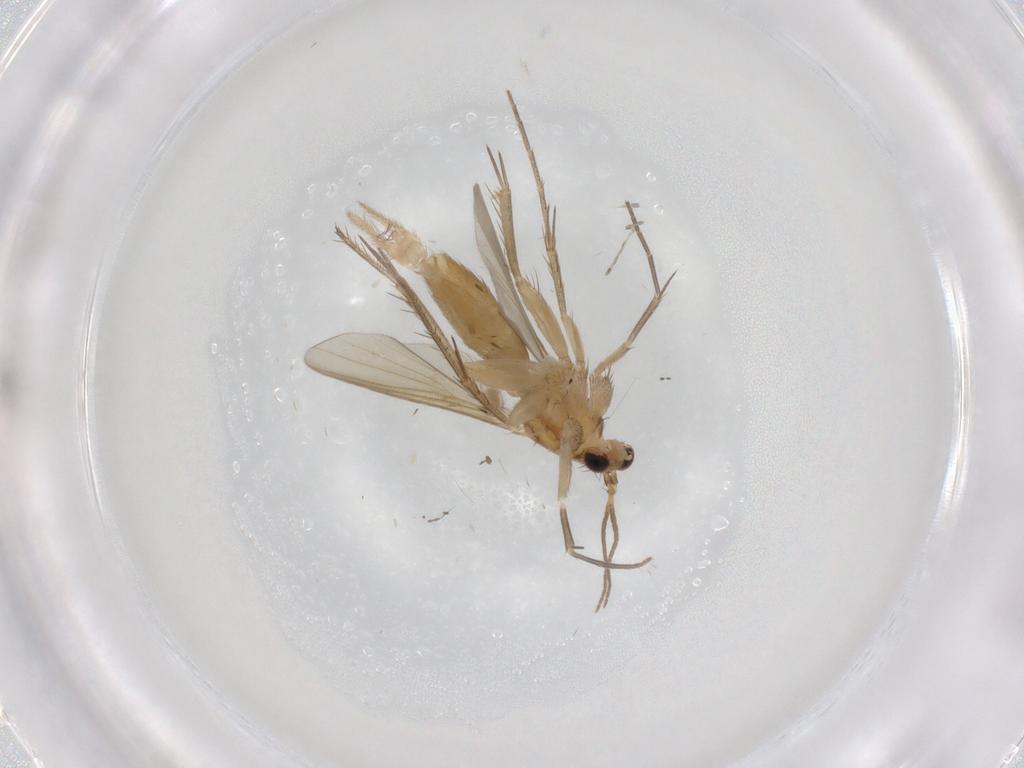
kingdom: Animalia
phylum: Arthropoda
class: Insecta
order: Diptera
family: Mycetophilidae
